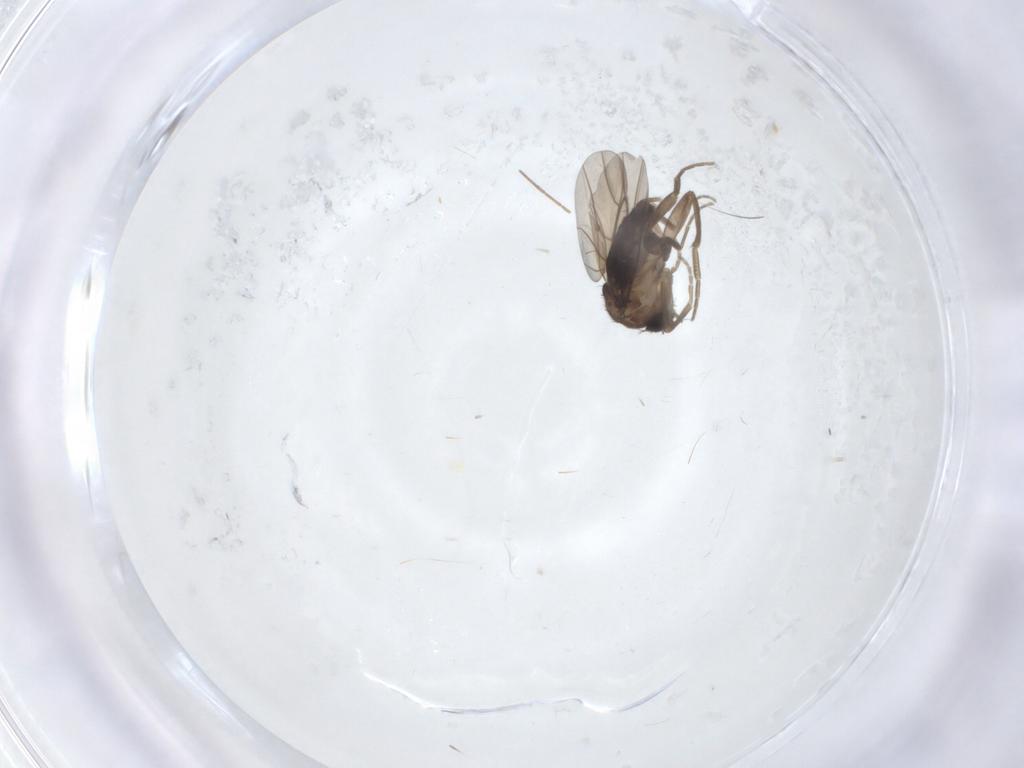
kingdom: Animalia
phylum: Arthropoda
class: Insecta
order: Diptera
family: Phoridae
